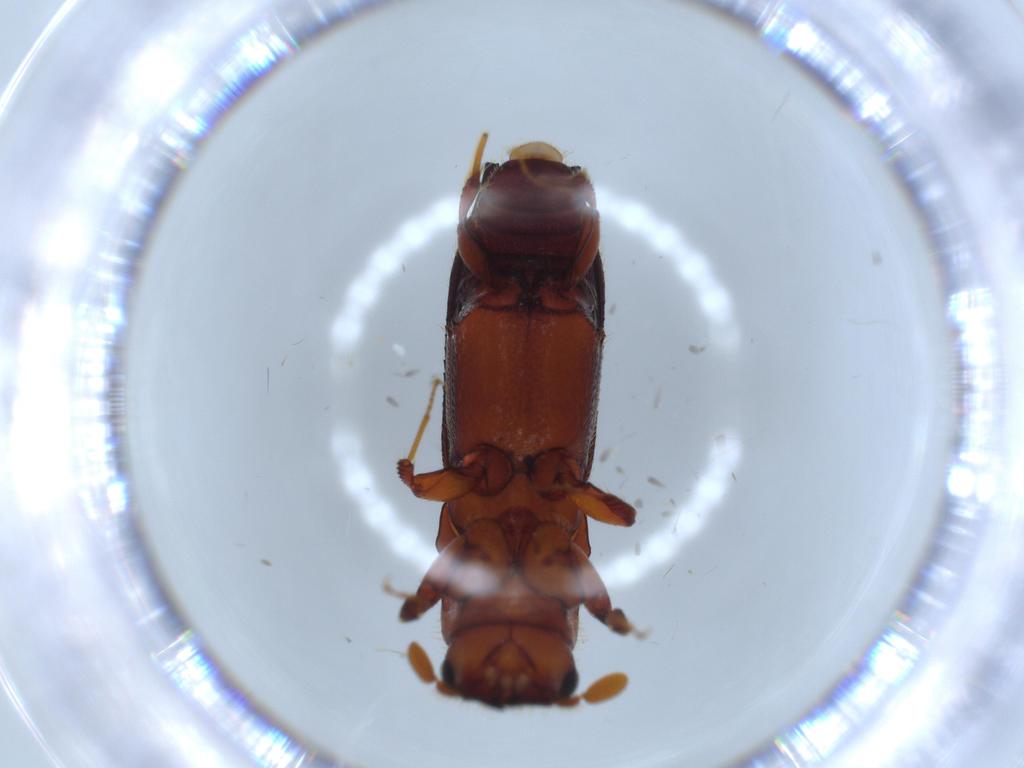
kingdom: Animalia
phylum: Arthropoda
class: Insecta
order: Coleoptera
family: Curculionidae
